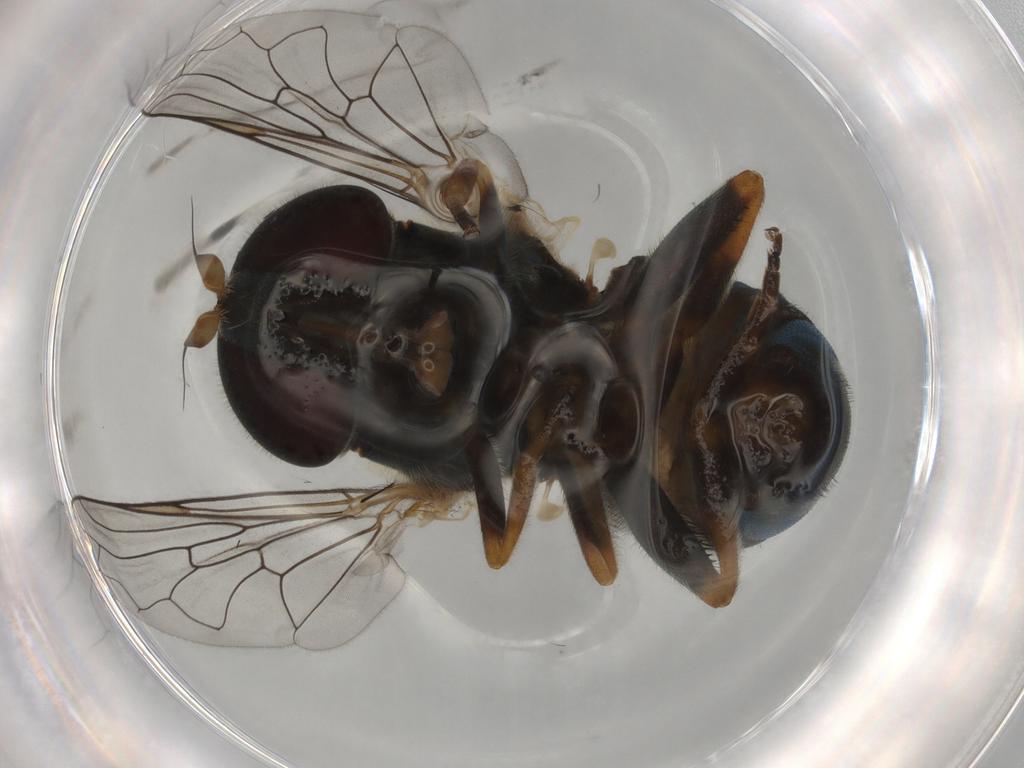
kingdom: Animalia
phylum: Arthropoda
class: Insecta
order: Diptera
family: Syrphidae
